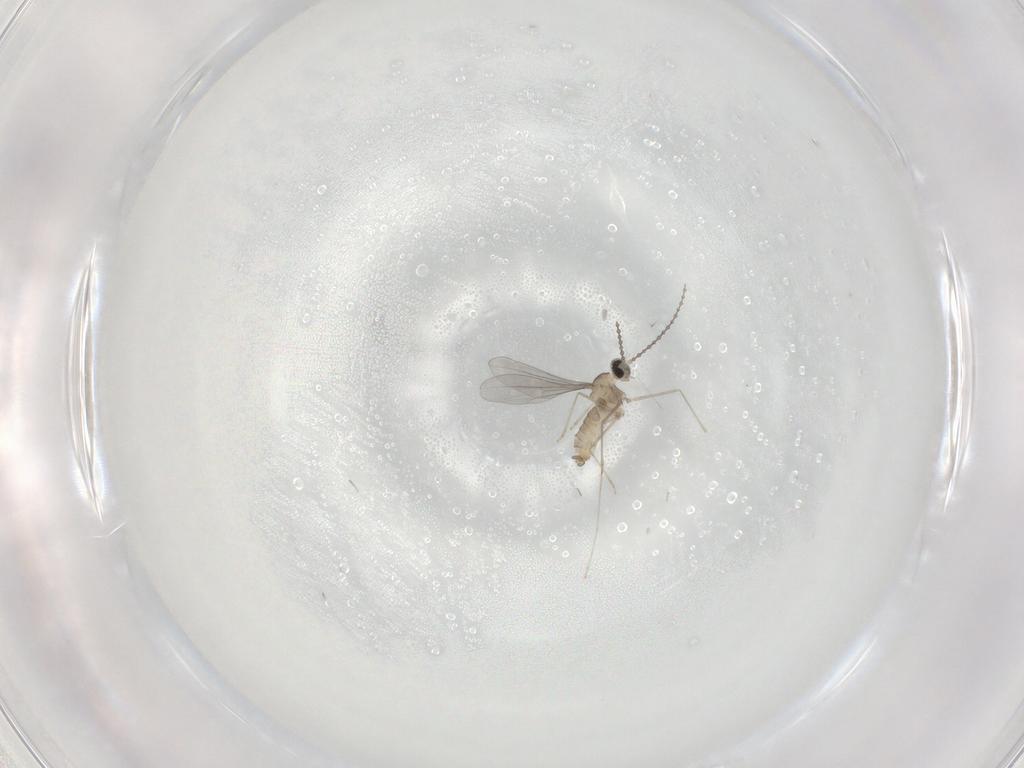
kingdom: Animalia
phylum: Arthropoda
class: Insecta
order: Diptera
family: Cecidomyiidae
